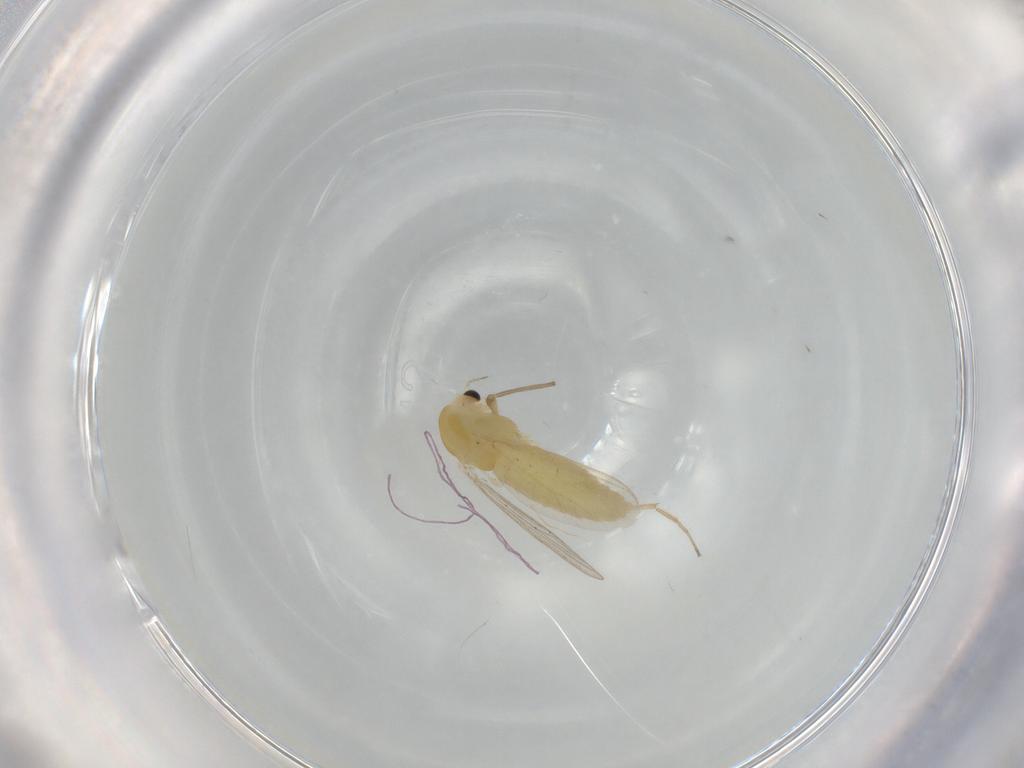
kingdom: Animalia
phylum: Arthropoda
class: Insecta
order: Diptera
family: Chironomidae
